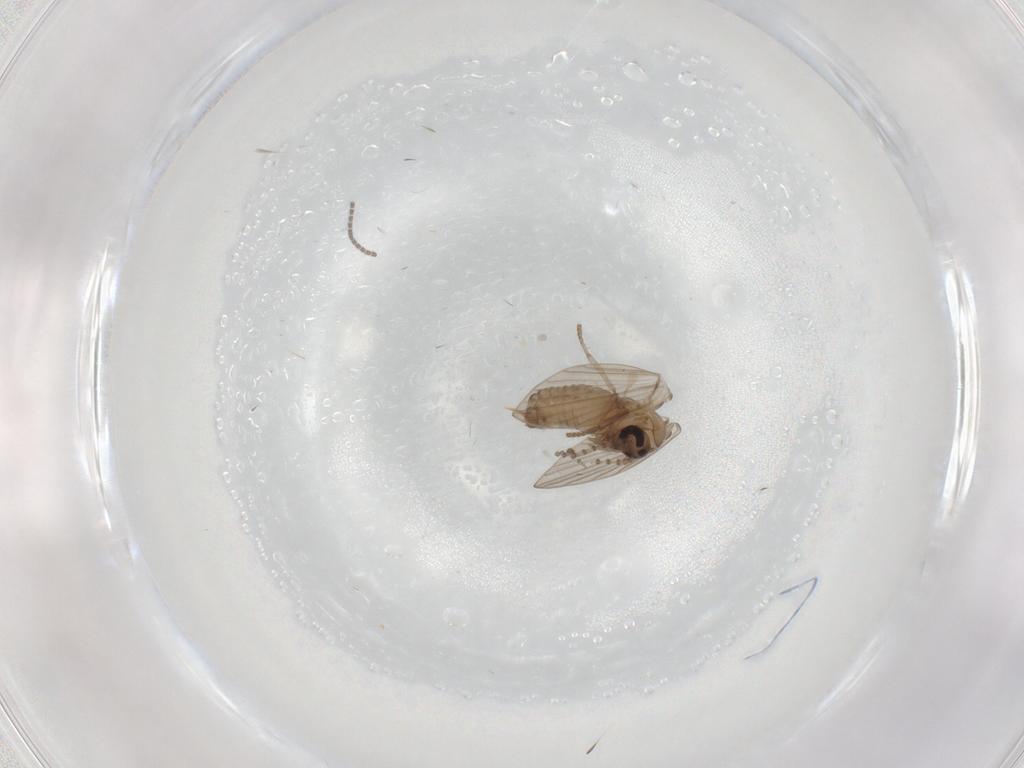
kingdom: Animalia
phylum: Arthropoda
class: Insecta
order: Diptera
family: Psychodidae
